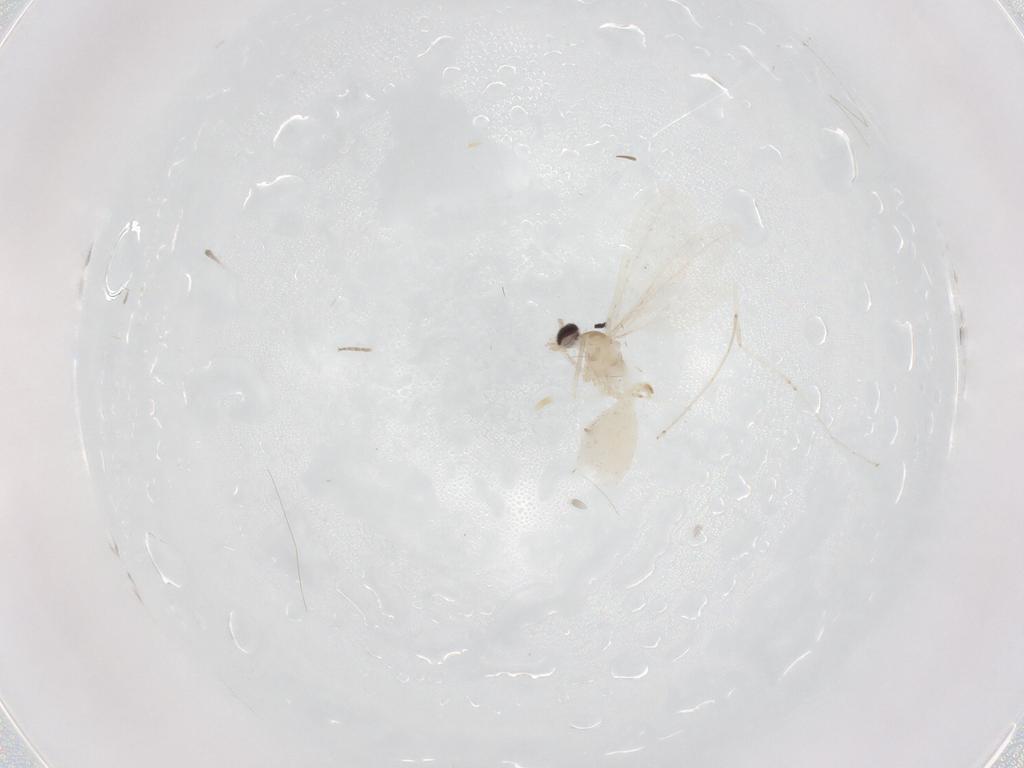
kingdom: Animalia
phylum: Arthropoda
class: Insecta
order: Diptera
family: Cecidomyiidae
